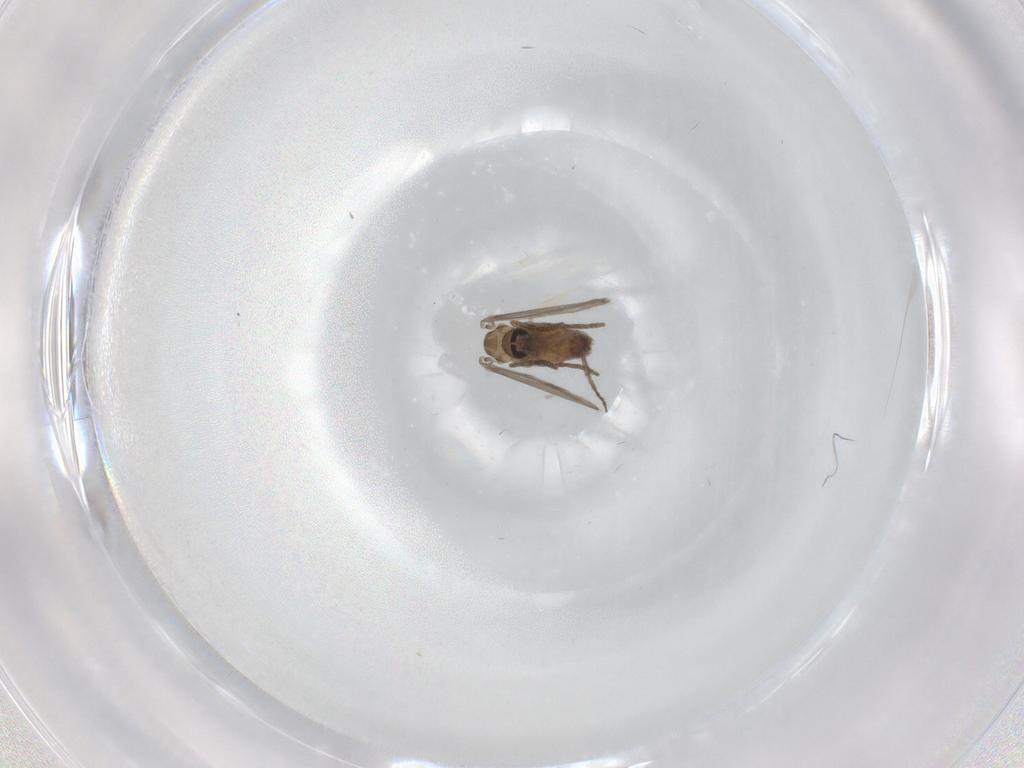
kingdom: Animalia
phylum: Arthropoda
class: Insecta
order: Diptera
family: Psychodidae
